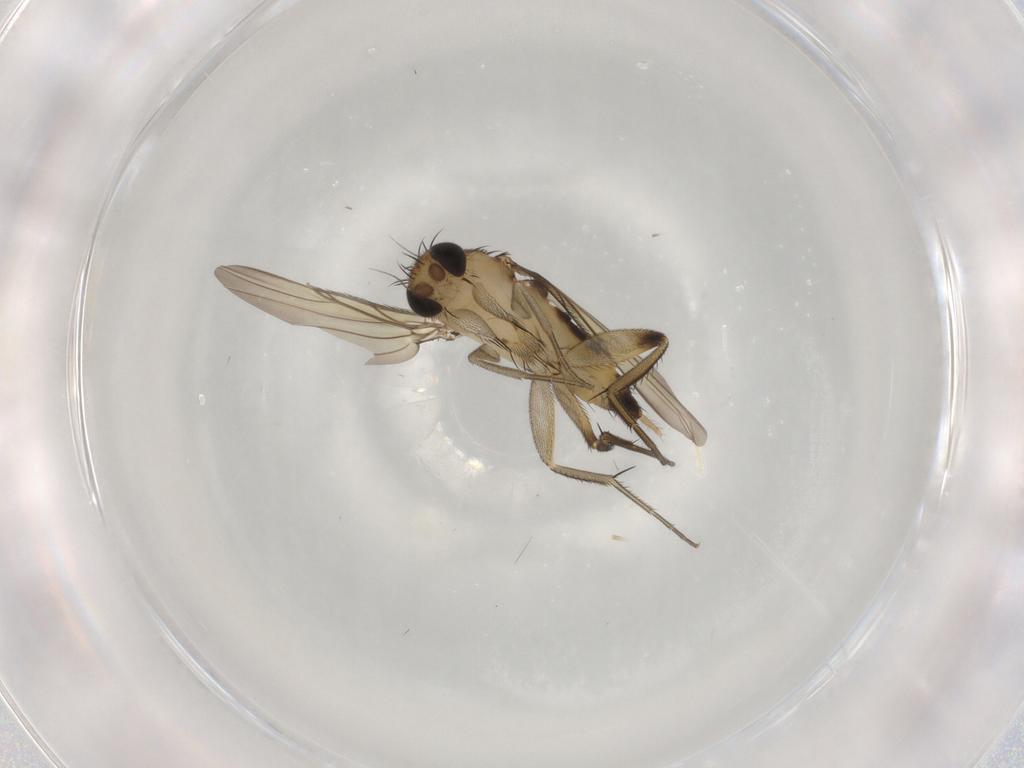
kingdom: Animalia
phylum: Arthropoda
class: Insecta
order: Diptera
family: Phoridae
